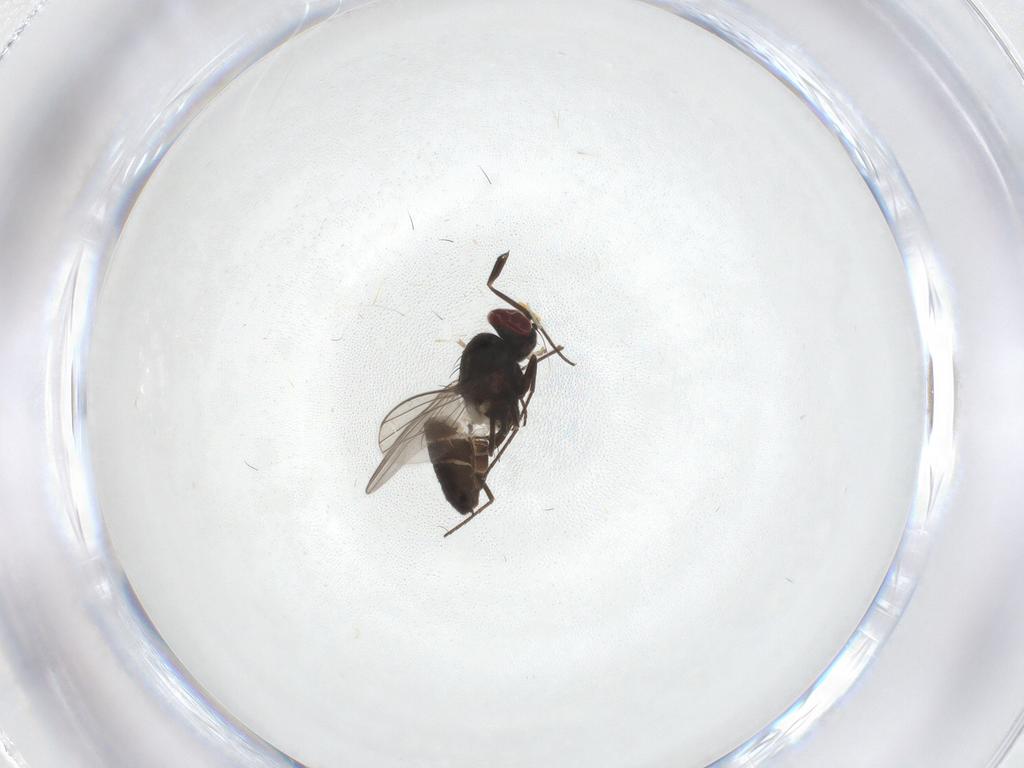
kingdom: Animalia
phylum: Arthropoda
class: Insecta
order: Diptera
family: Dolichopodidae
